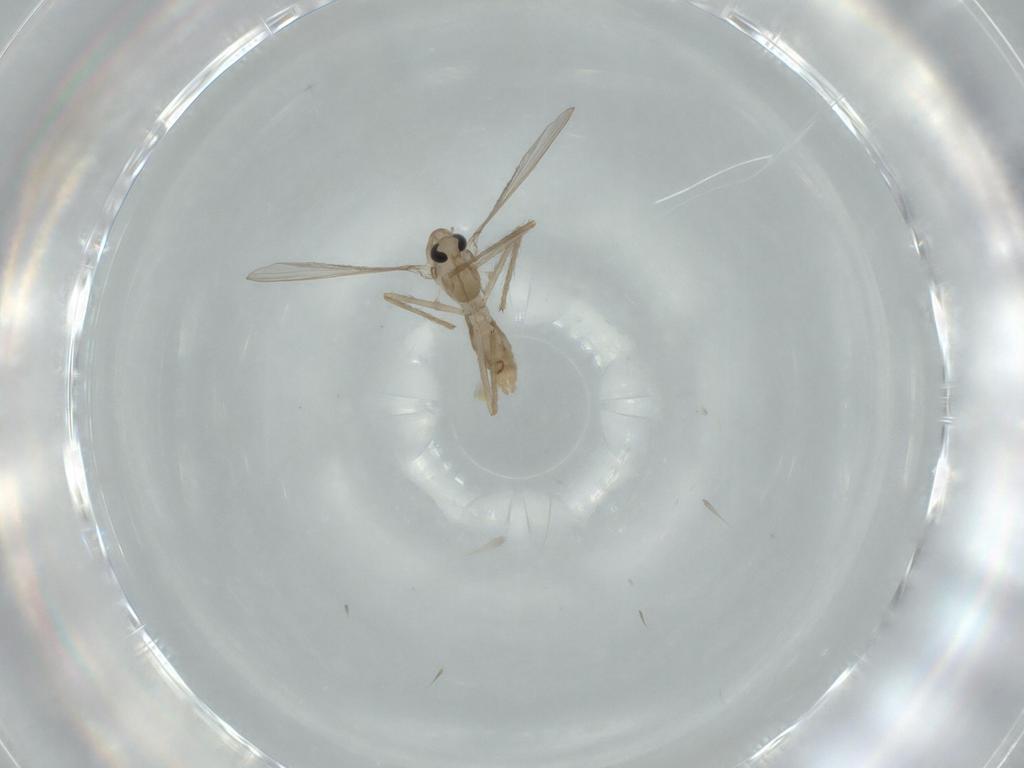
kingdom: Animalia
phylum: Arthropoda
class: Insecta
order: Diptera
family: Chironomidae
